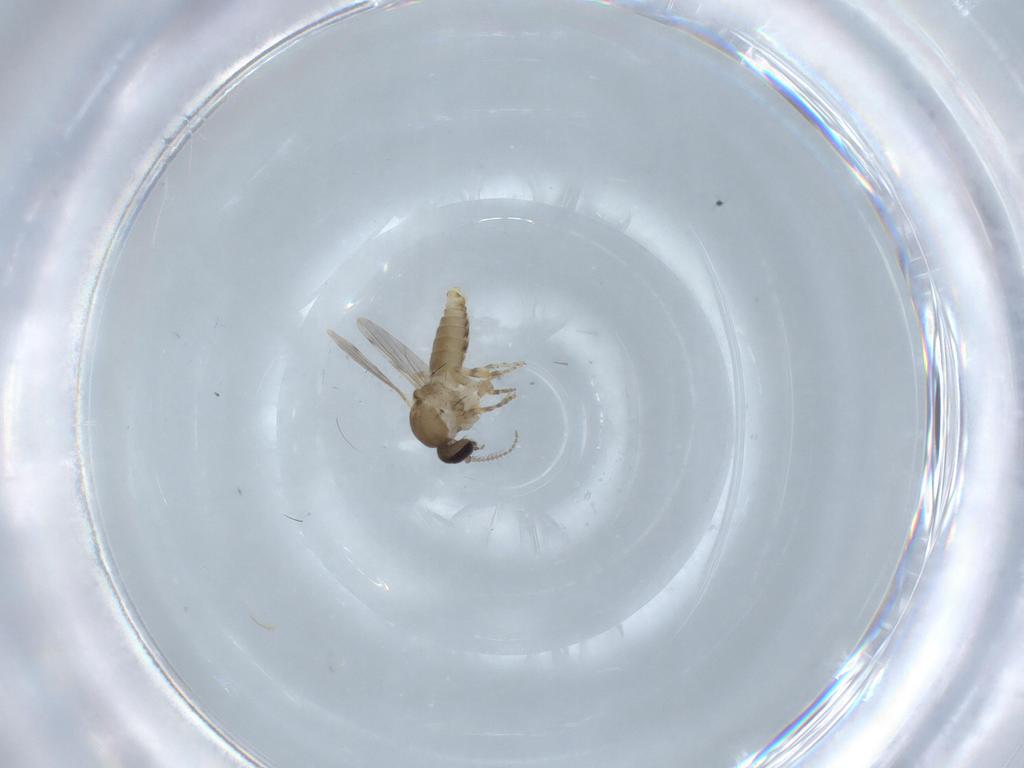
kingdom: Animalia
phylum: Arthropoda
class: Insecta
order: Diptera
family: Ceratopogonidae
